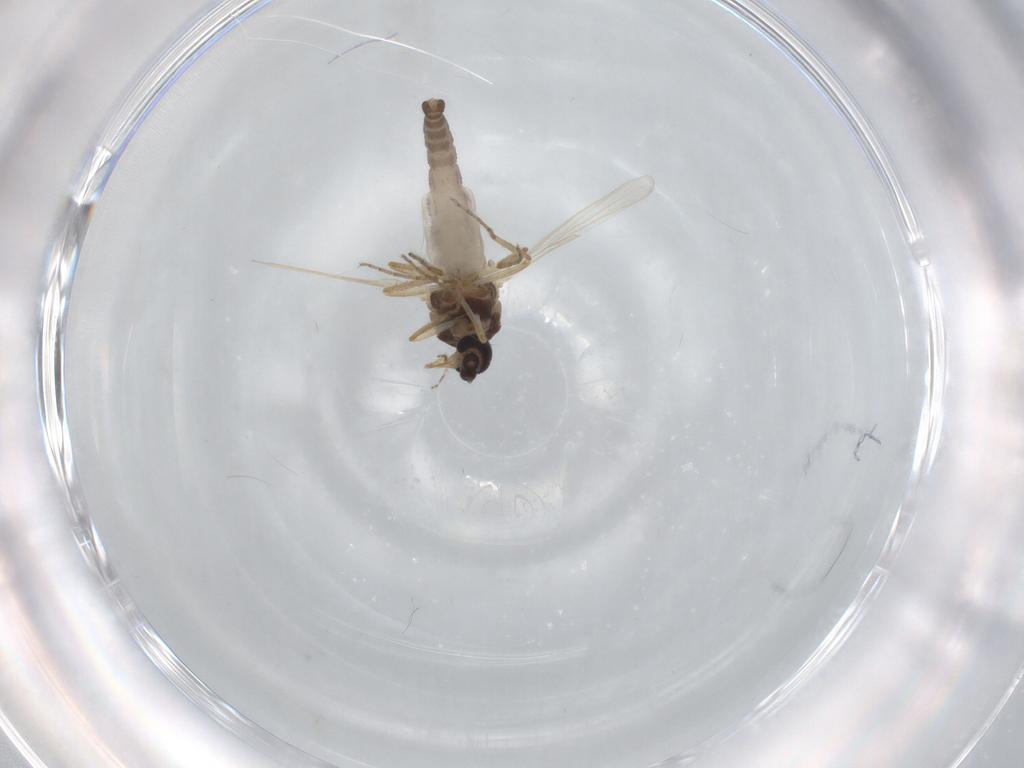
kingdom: Animalia
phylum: Arthropoda
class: Insecta
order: Diptera
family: Ceratopogonidae
